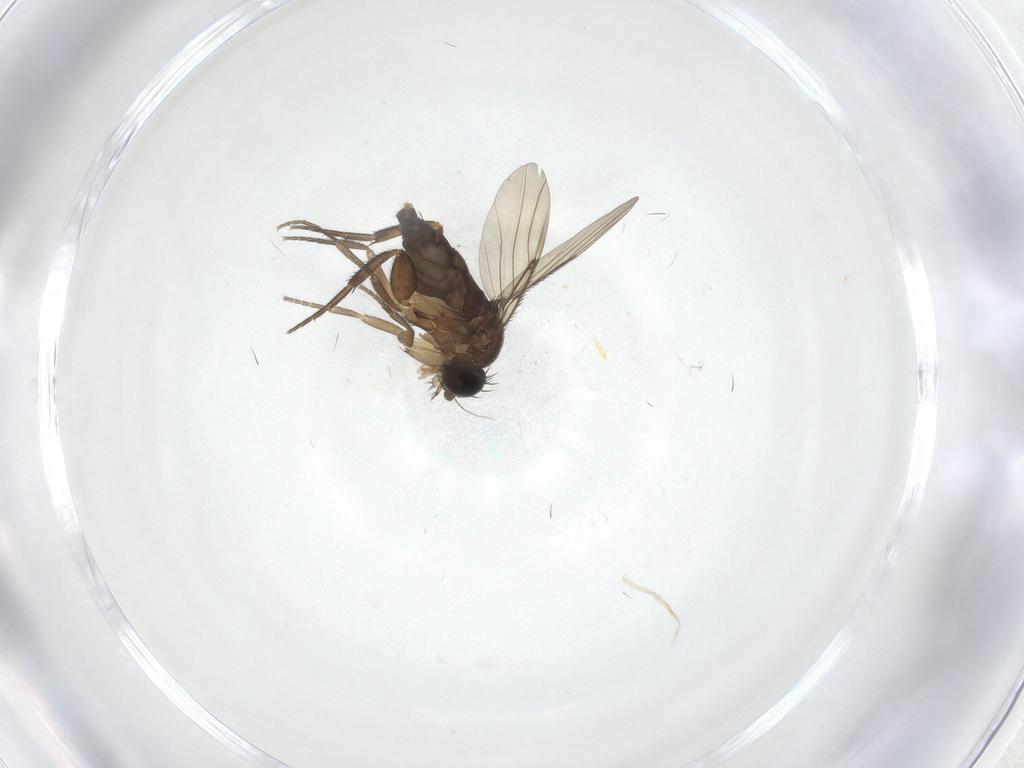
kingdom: Animalia
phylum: Arthropoda
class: Insecta
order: Diptera
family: Phoridae
